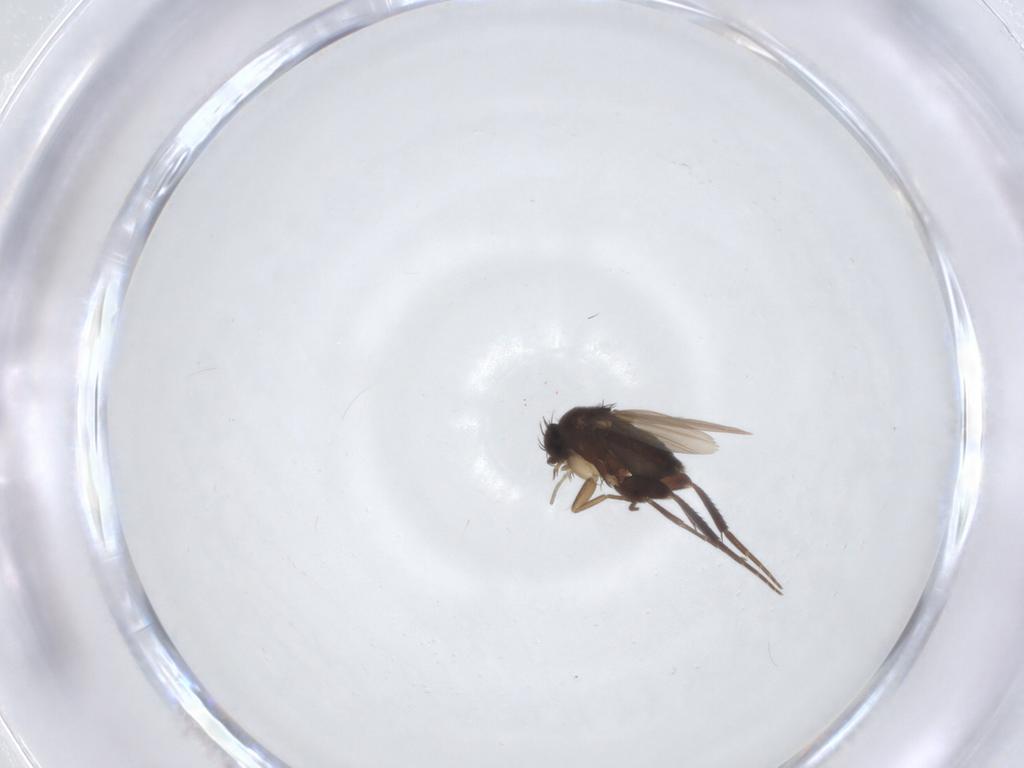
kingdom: Animalia
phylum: Arthropoda
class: Insecta
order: Diptera
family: Phoridae
